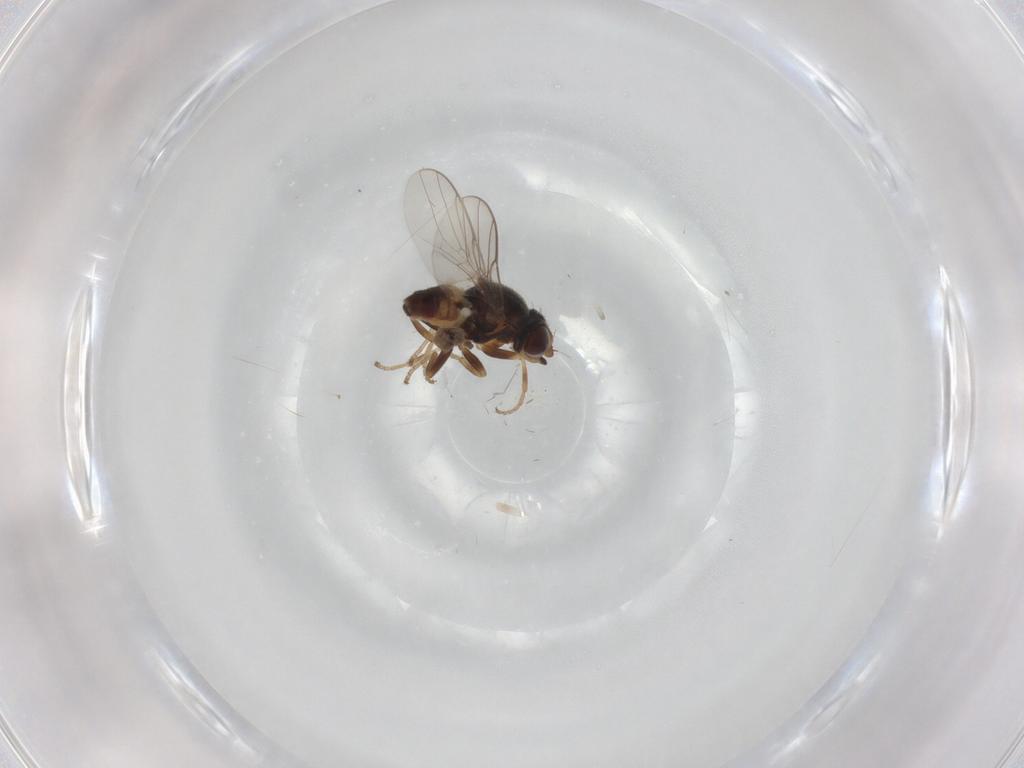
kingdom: Animalia
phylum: Arthropoda
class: Insecta
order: Diptera
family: Chloropidae
